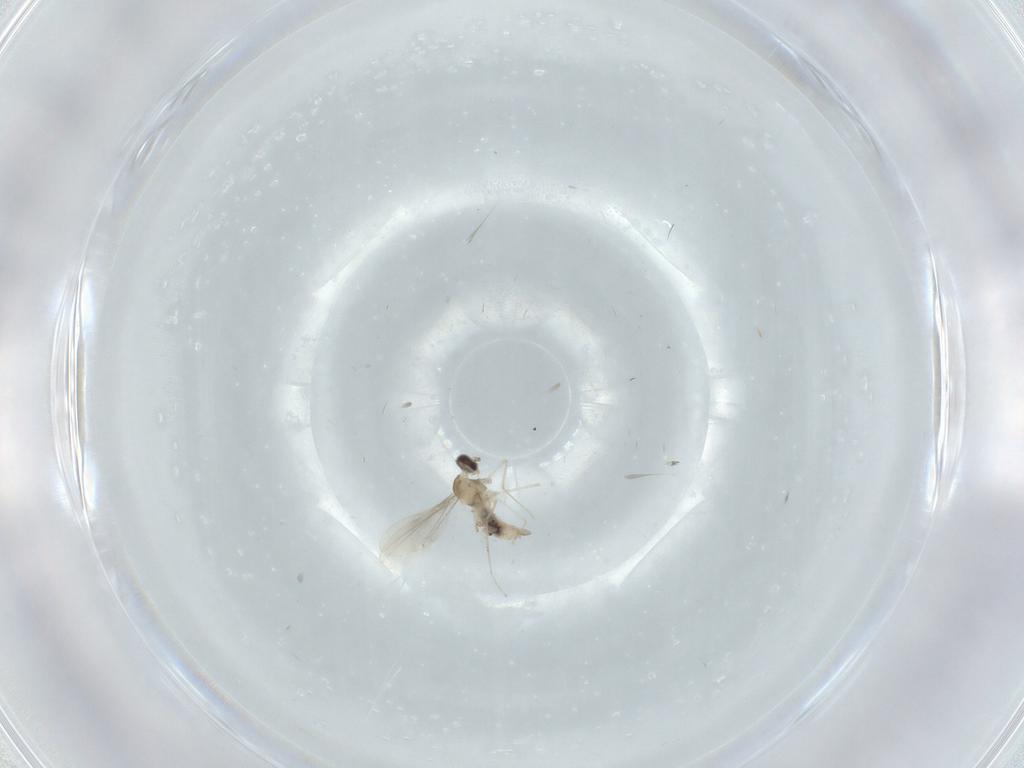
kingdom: Animalia
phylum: Arthropoda
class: Insecta
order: Diptera
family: Cecidomyiidae
